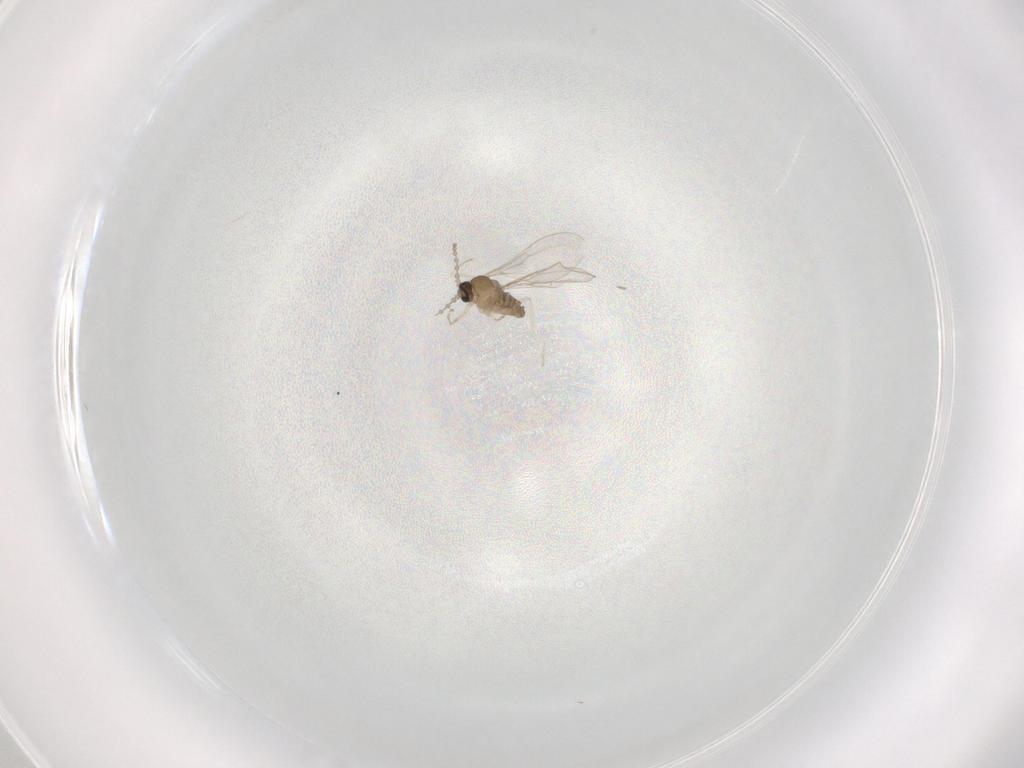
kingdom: Animalia
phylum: Arthropoda
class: Insecta
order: Diptera
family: Cecidomyiidae
